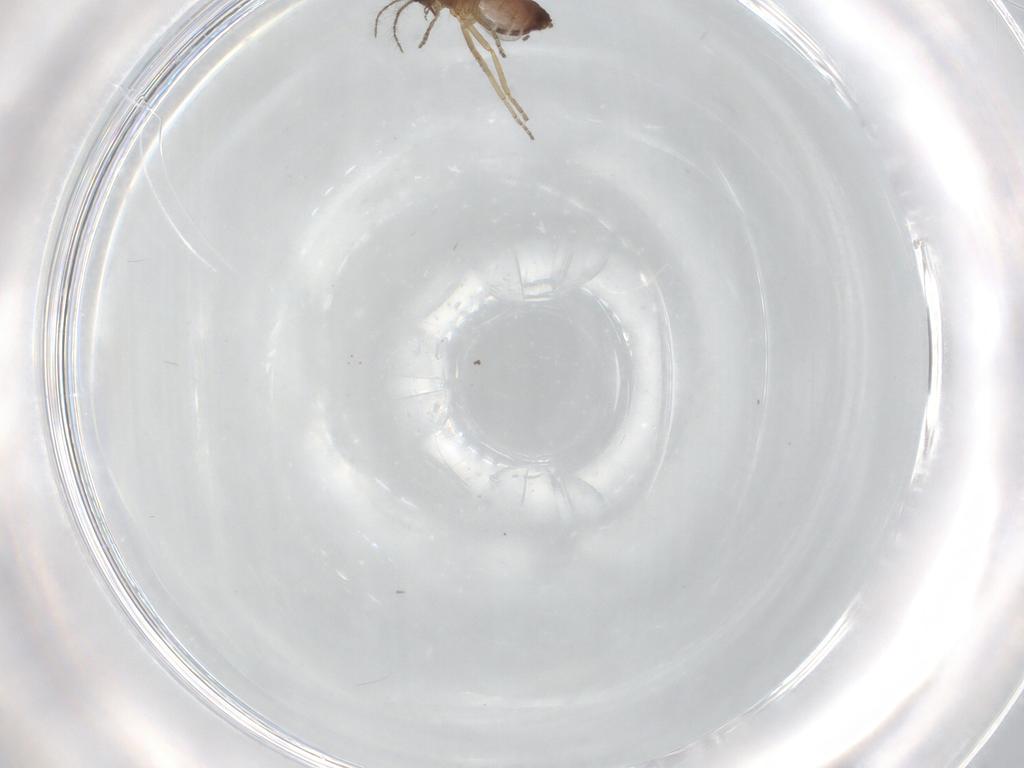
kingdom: Animalia
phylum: Arthropoda
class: Insecta
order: Diptera
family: Ceratopogonidae
